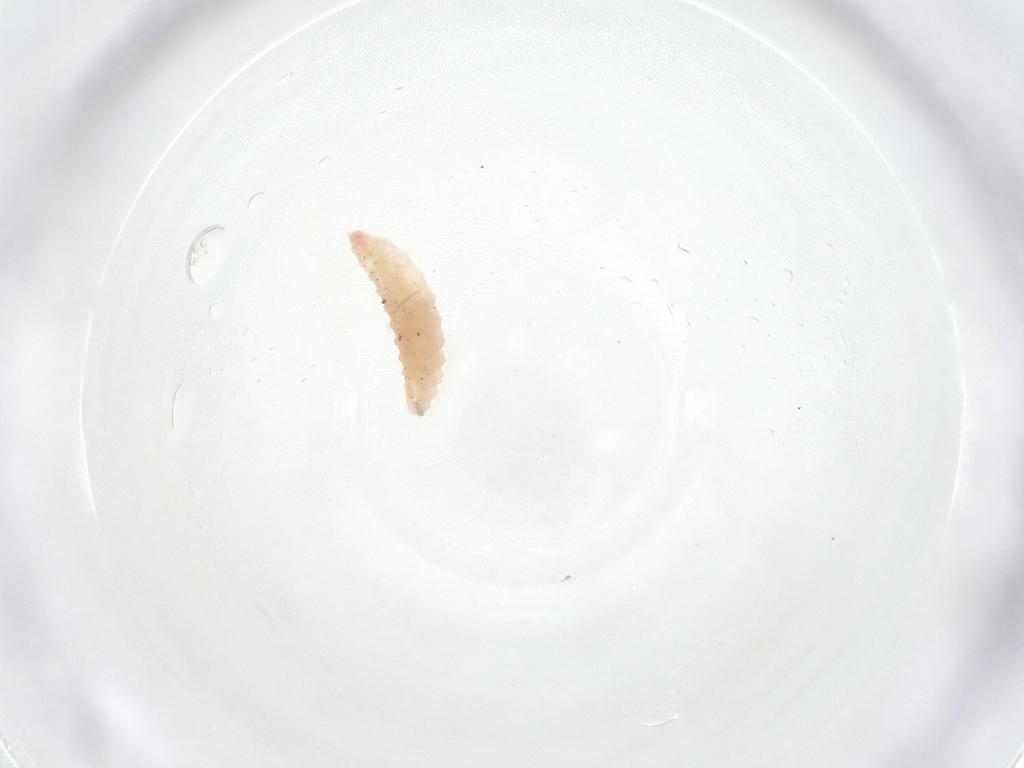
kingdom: Animalia
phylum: Arthropoda
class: Insecta
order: Diptera
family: Cecidomyiidae
